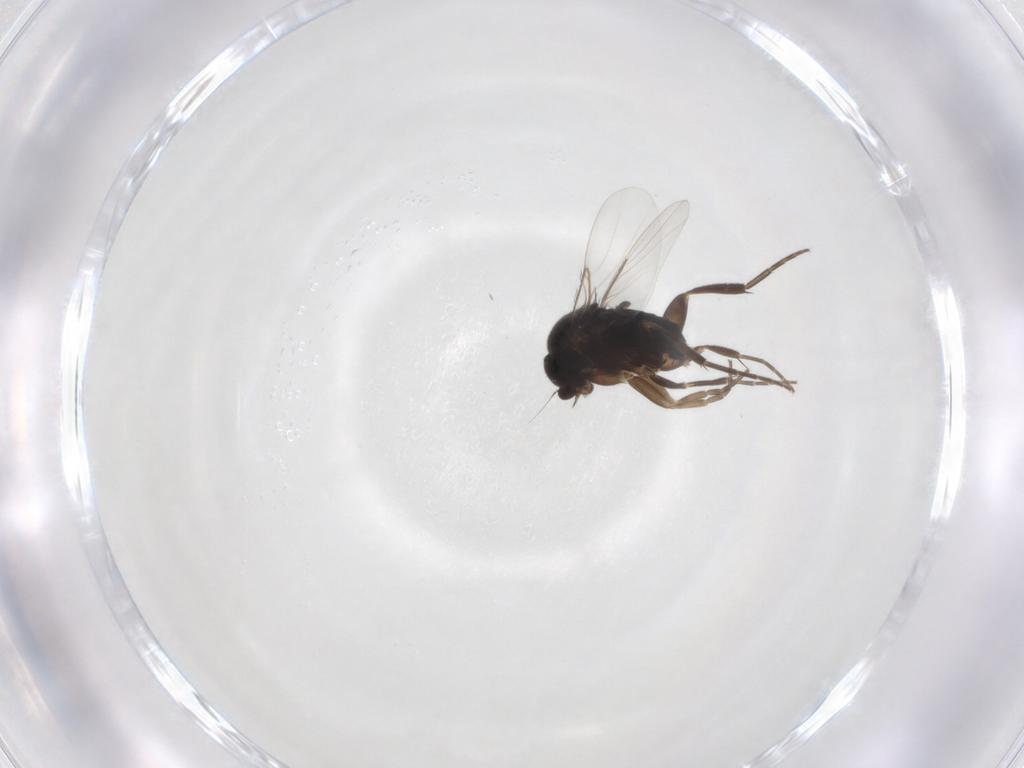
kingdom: Animalia
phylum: Arthropoda
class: Insecta
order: Diptera
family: Phoridae
